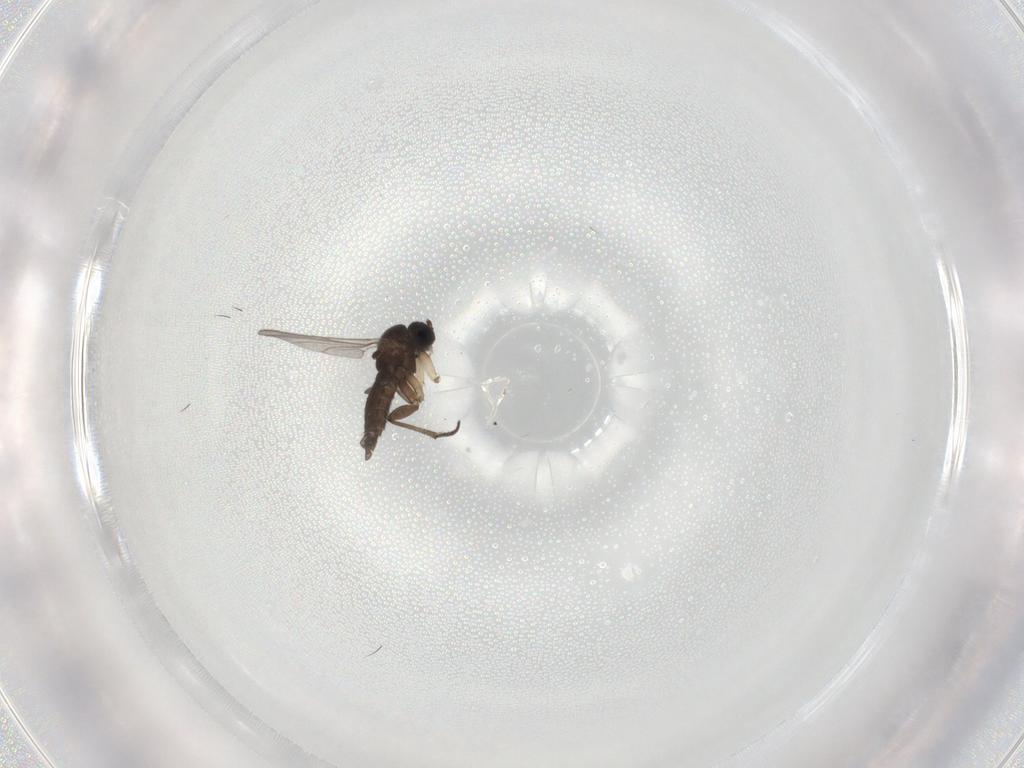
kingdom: Animalia
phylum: Arthropoda
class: Insecta
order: Diptera
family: Sciaridae
